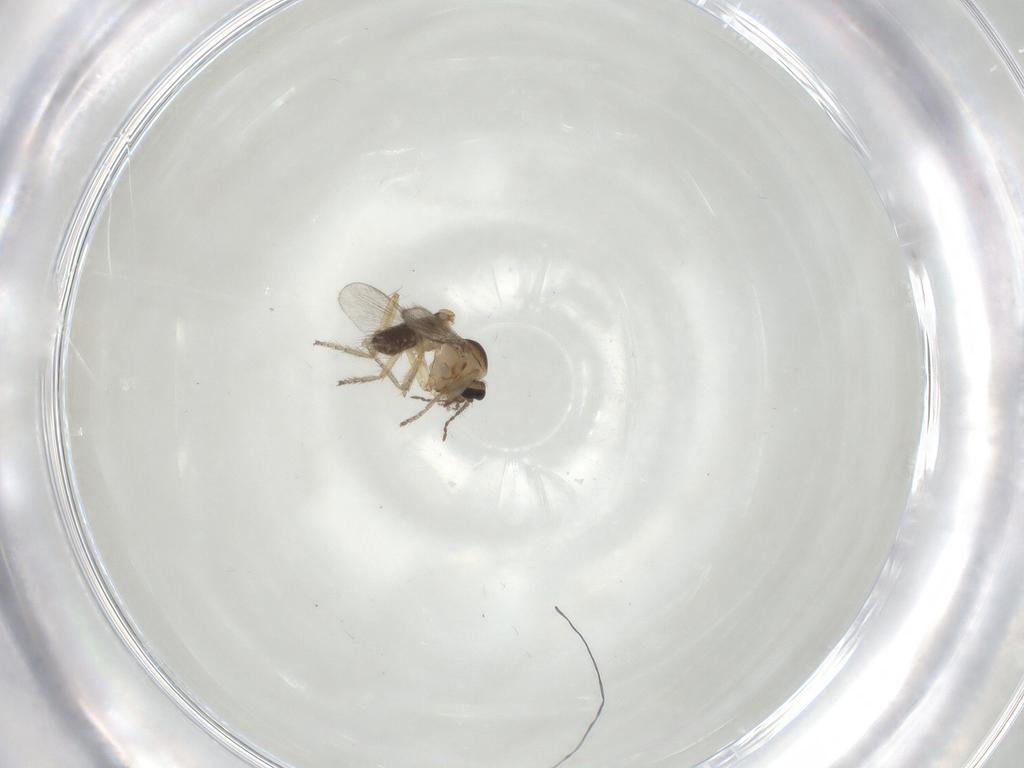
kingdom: Animalia
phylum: Arthropoda
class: Insecta
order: Diptera
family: Ceratopogonidae
